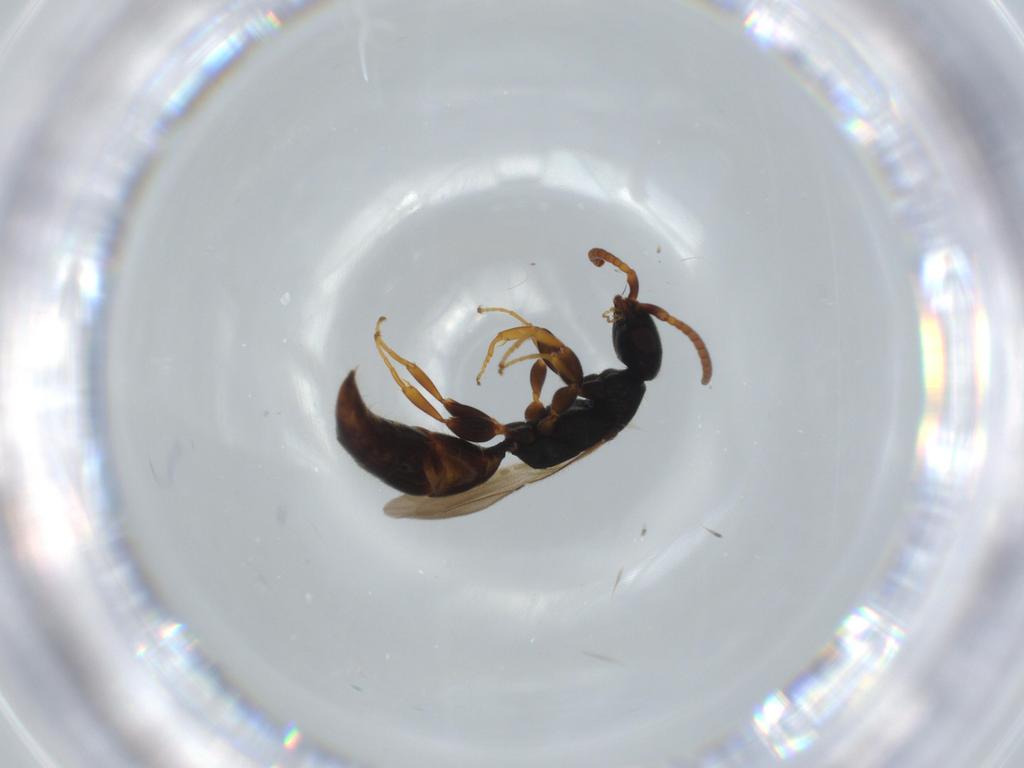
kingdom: Animalia
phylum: Arthropoda
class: Insecta
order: Hymenoptera
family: Bethylidae
